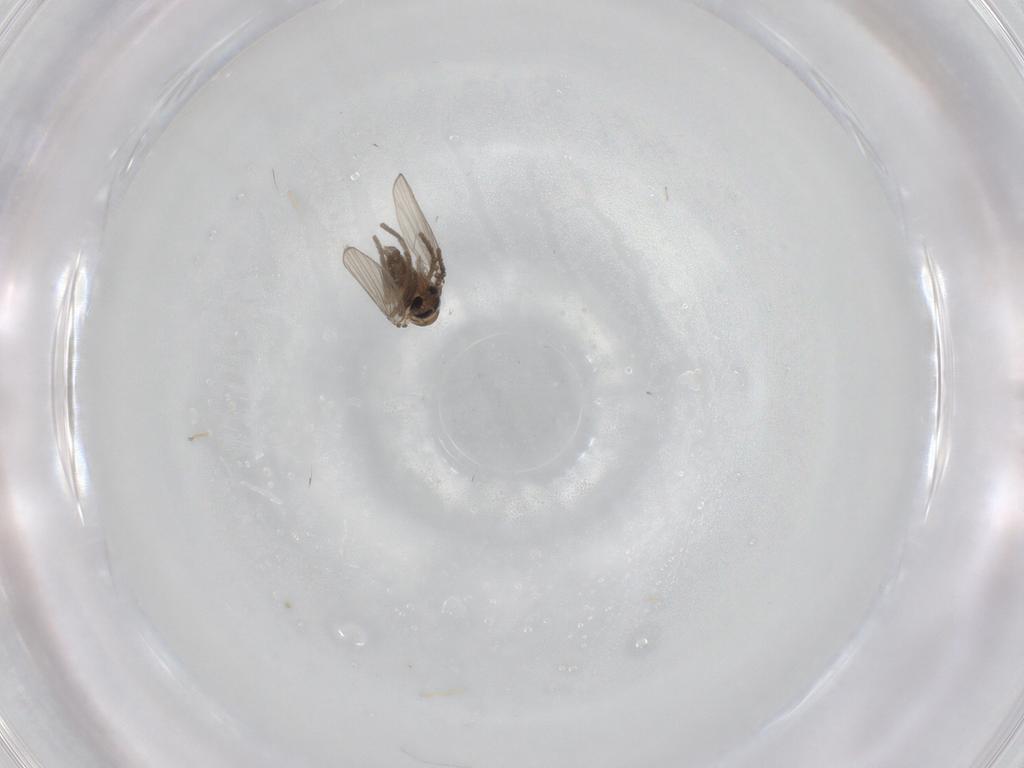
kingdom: Animalia
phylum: Arthropoda
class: Insecta
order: Diptera
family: Psychodidae
